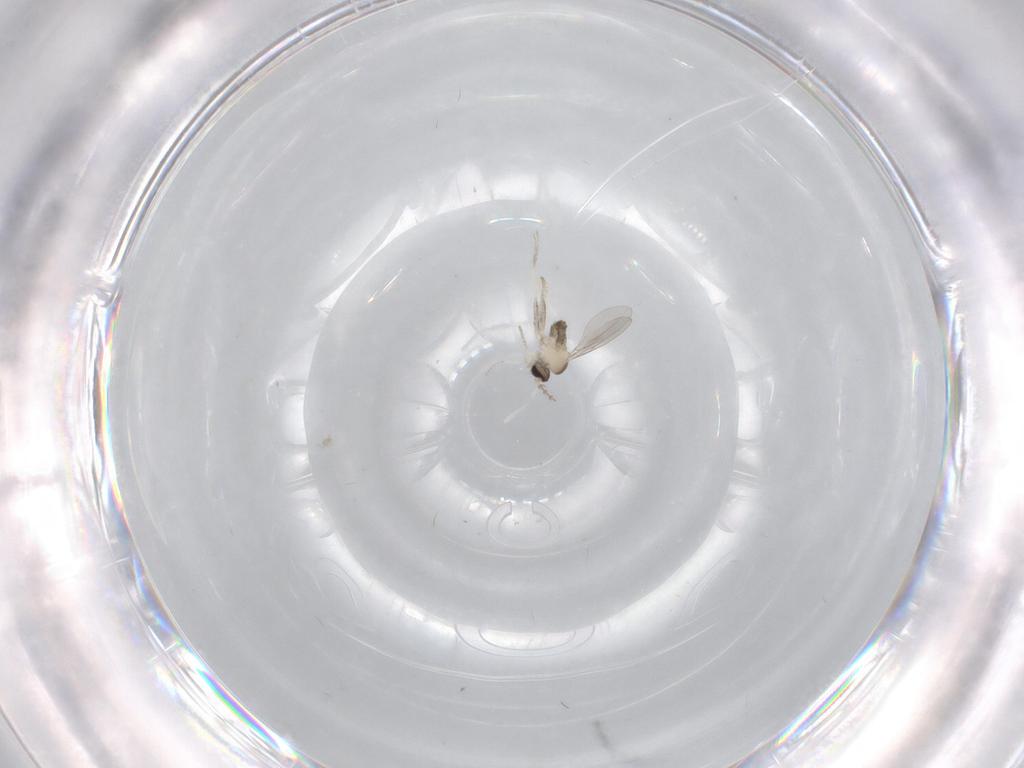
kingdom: Animalia
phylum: Arthropoda
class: Insecta
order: Diptera
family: Cecidomyiidae
